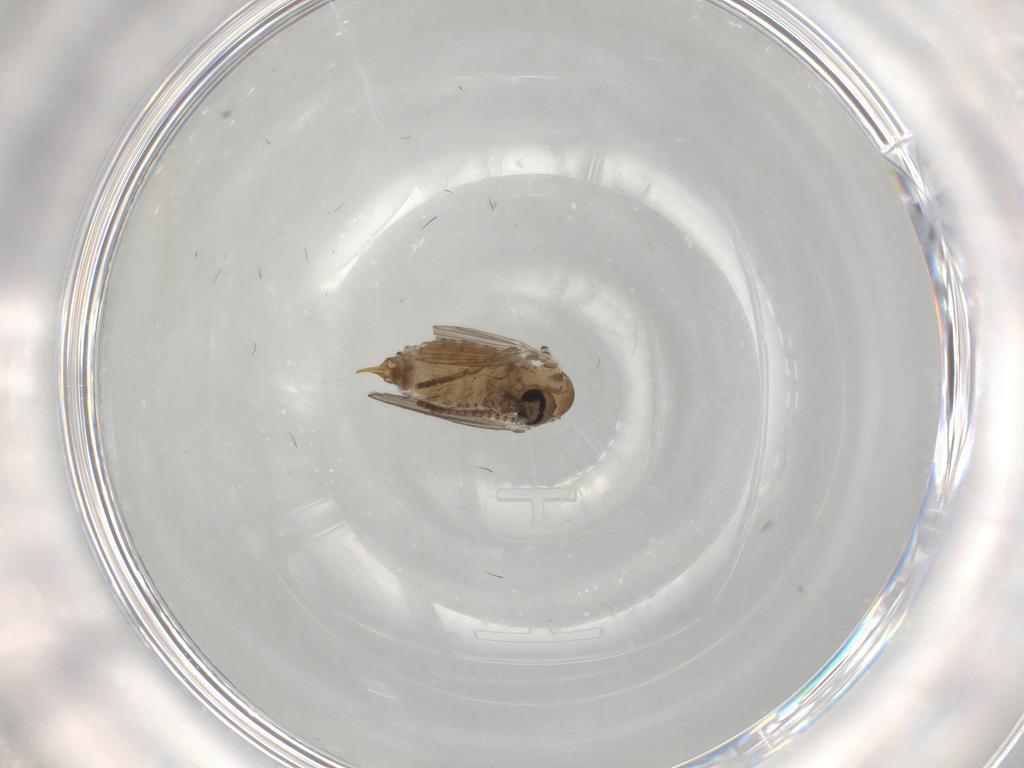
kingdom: Animalia
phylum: Arthropoda
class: Insecta
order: Diptera
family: Psychodidae
